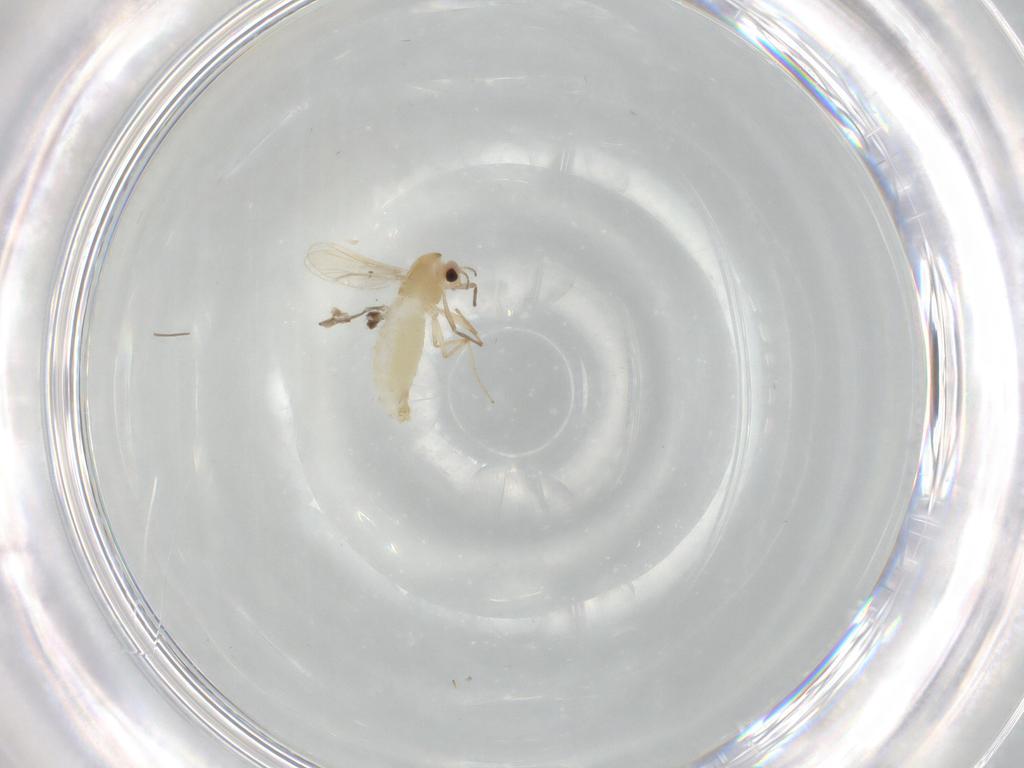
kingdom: Animalia
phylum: Arthropoda
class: Insecta
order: Diptera
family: Chironomidae
